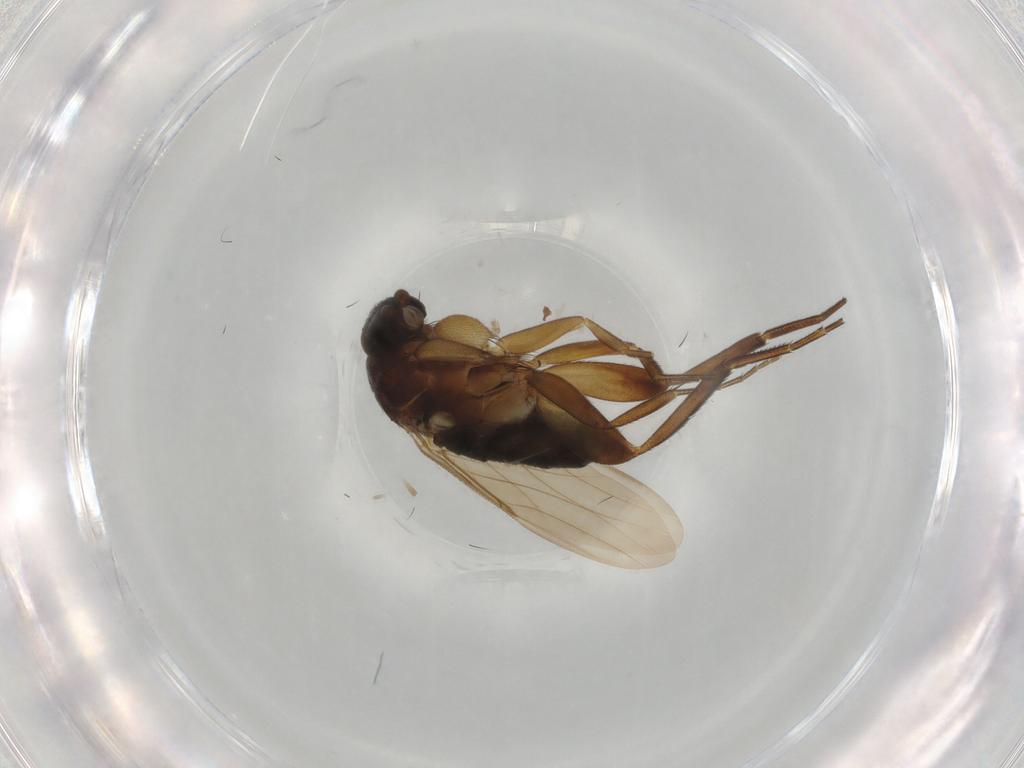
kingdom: Animalia
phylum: Arthropoda
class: Insecta
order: Diptera
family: Phoridae
